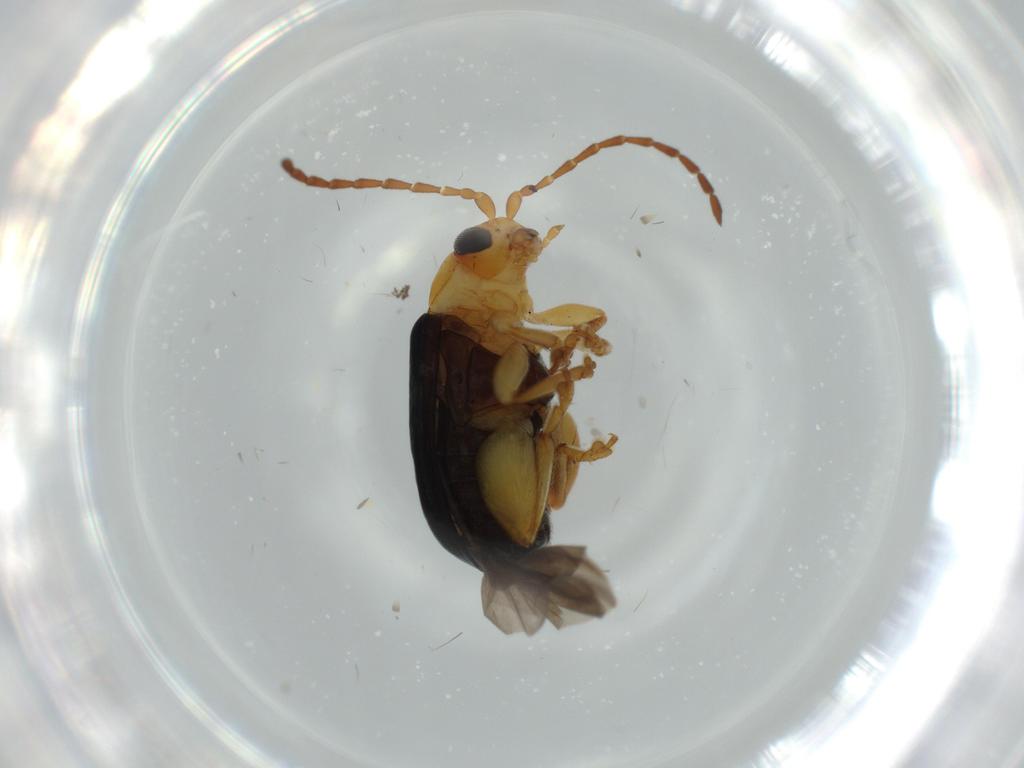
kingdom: Animalia
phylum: Arthropoda
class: Insecta
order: Coleoptera
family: Chrysomelidae
